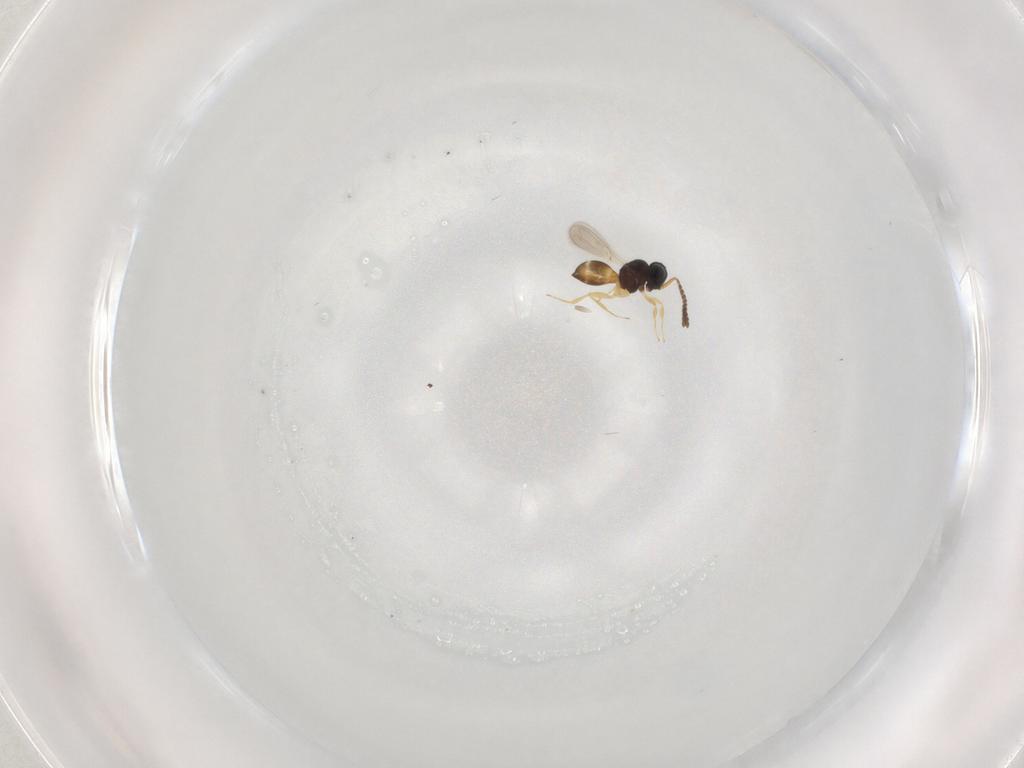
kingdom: Animalia
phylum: Arthropoda
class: Insecta
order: Hymenoptera
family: Scelionidae
